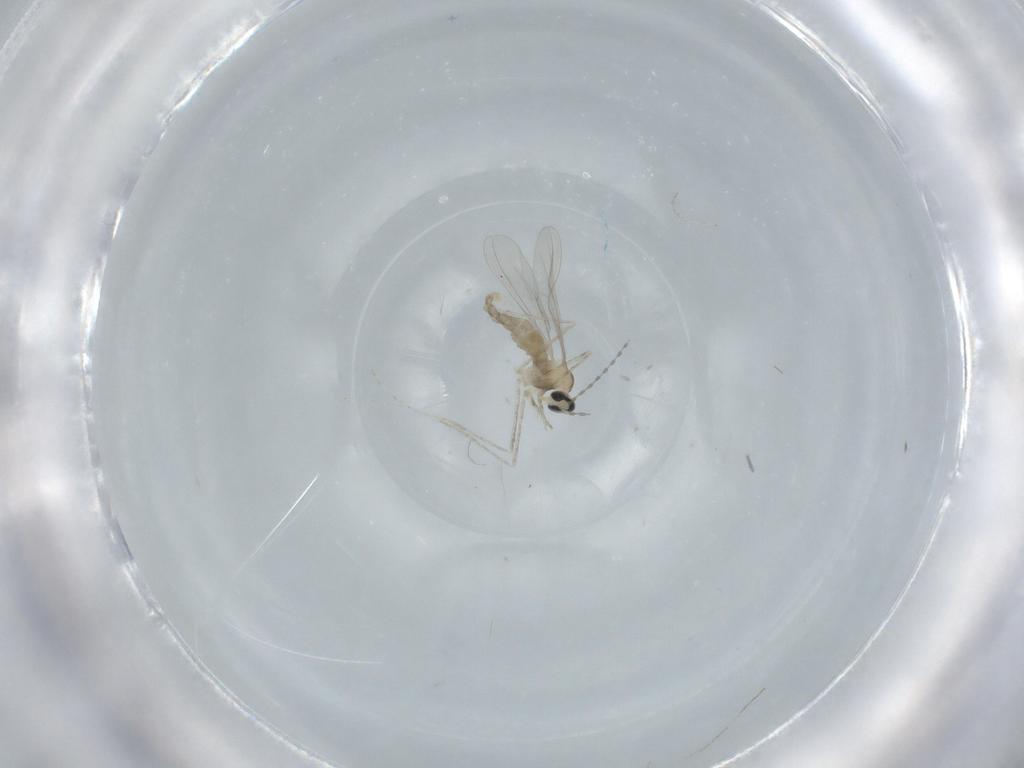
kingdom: Animalia
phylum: Arthropoda
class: Insecta
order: Diptera
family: Cecidomyiidae
